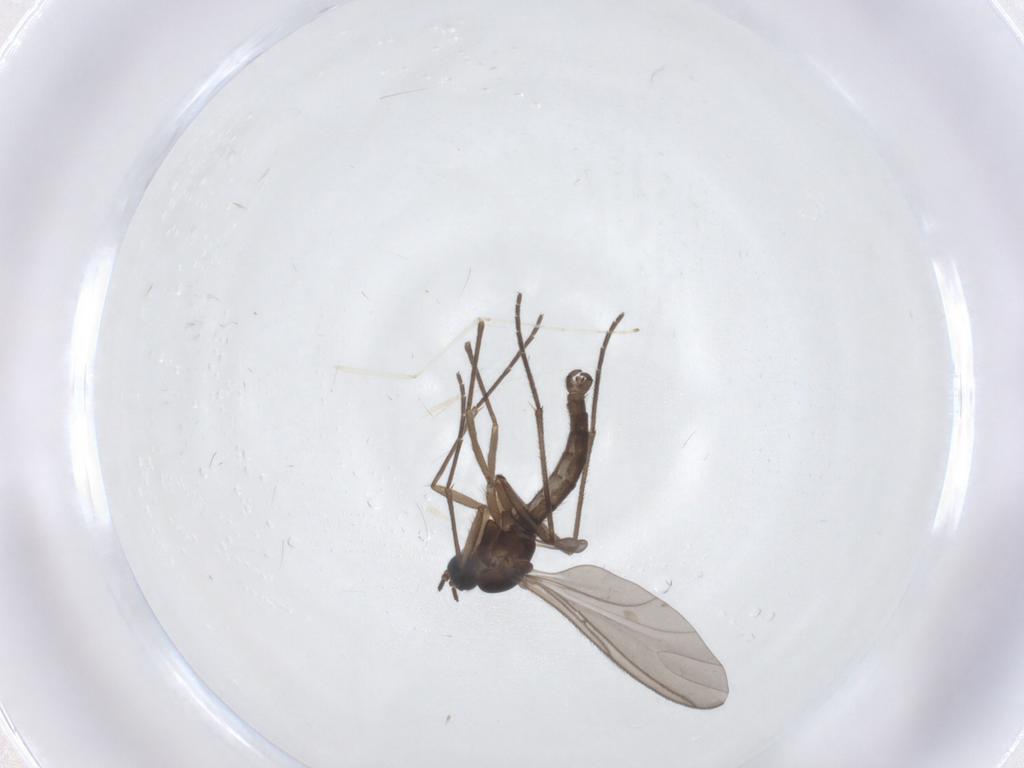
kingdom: Animalia
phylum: Arthropoda
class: Insecta
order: Diptera
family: Sciaridae
